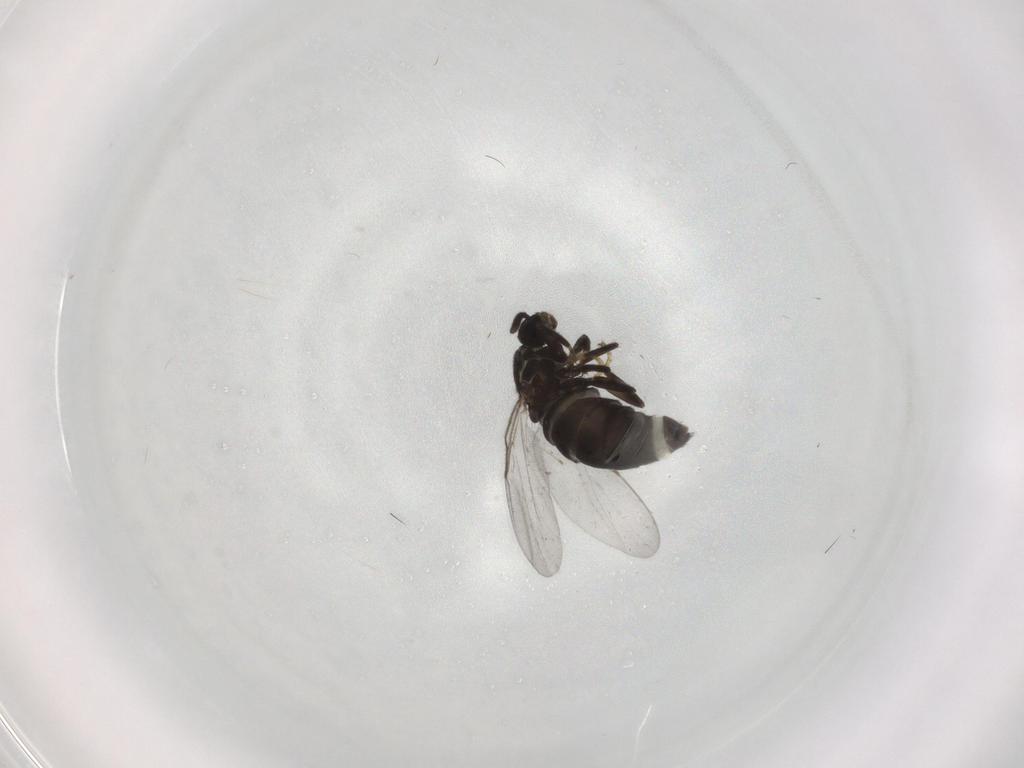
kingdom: Animalia
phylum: Arthropoda
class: Insecta
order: Diptera
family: Scatopsidae
